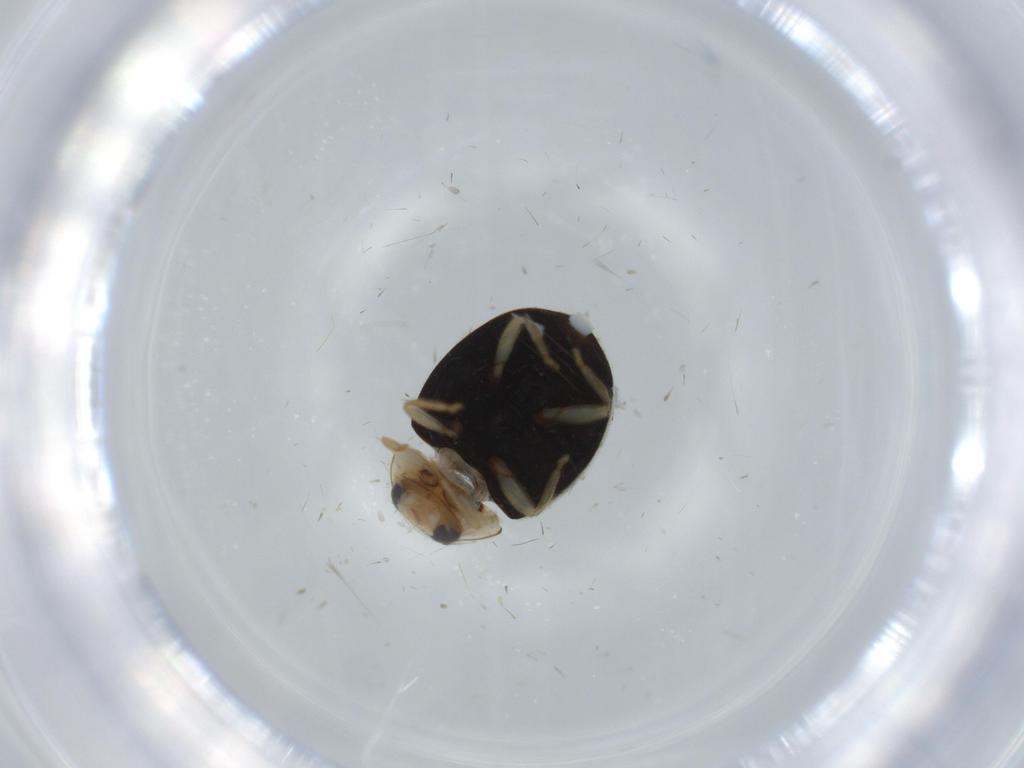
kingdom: Animalia
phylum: Arthropoda
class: Insecta
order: Coleoptera
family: Coccinellidae
